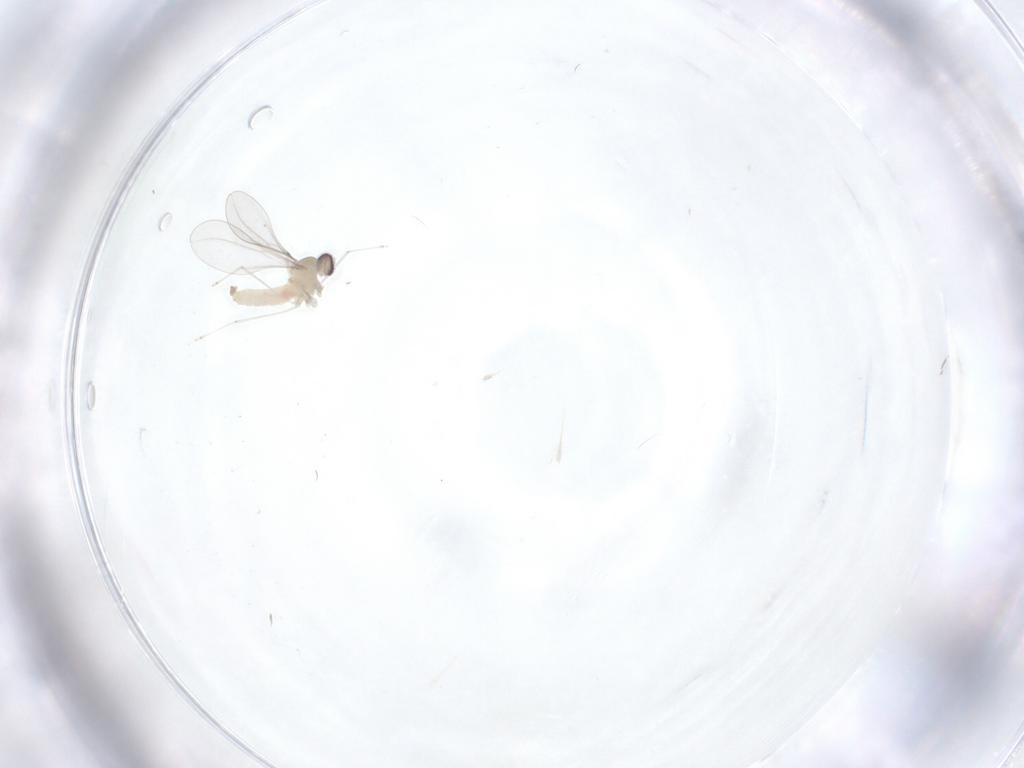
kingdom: Animalia
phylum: Arthropoda
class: Insecta
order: Diptera
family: Cecidomyiidae
